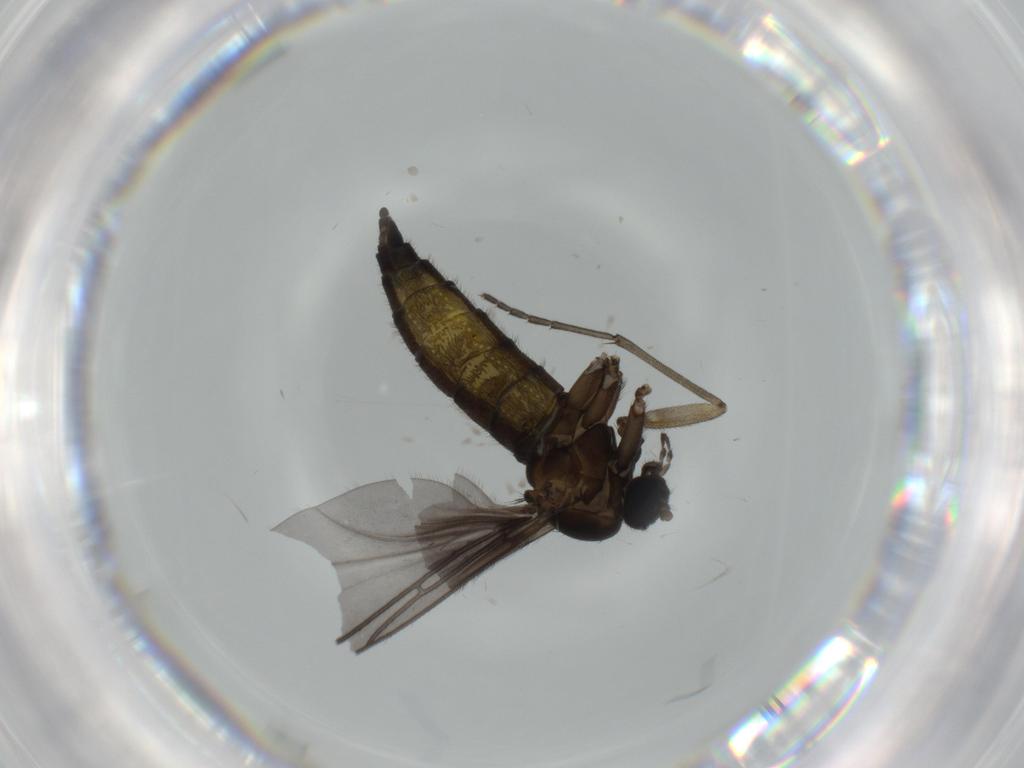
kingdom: Animalia
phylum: Arthropoda
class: Insecta
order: Diptera
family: Sciaridae
